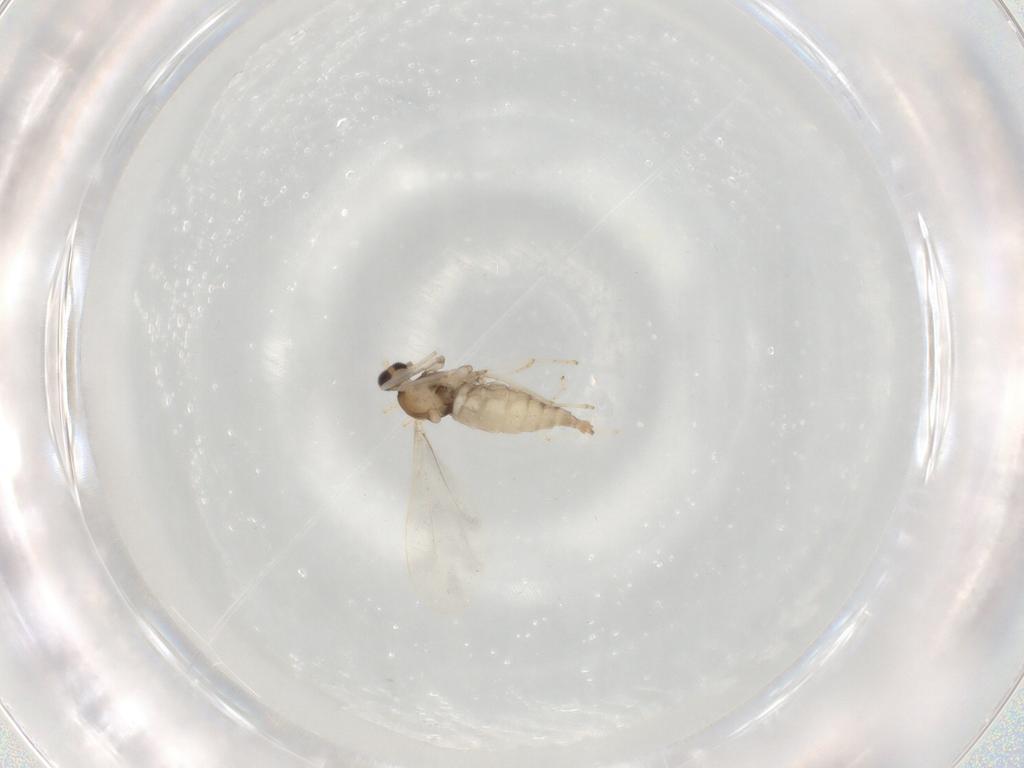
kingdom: Animalia
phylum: Arthropoda
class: Insecta
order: Diptera
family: Cecidomyiidae
